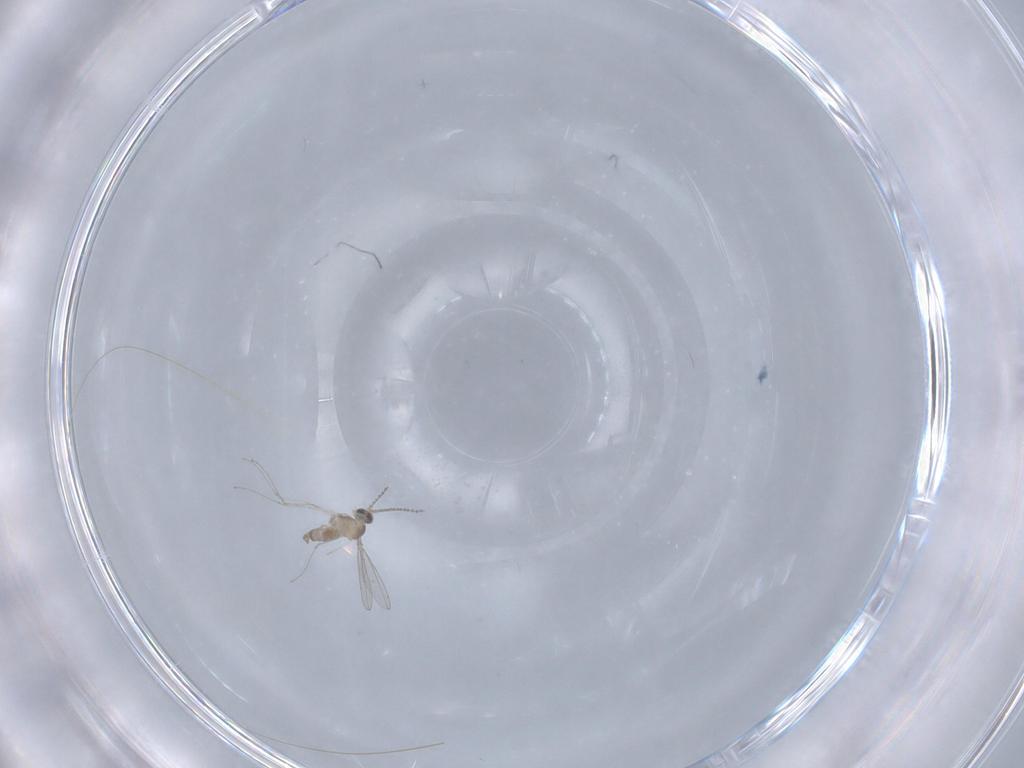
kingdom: Animalia
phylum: Arthropoda
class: Insecta
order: Diptera
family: Cecidomyiidae
